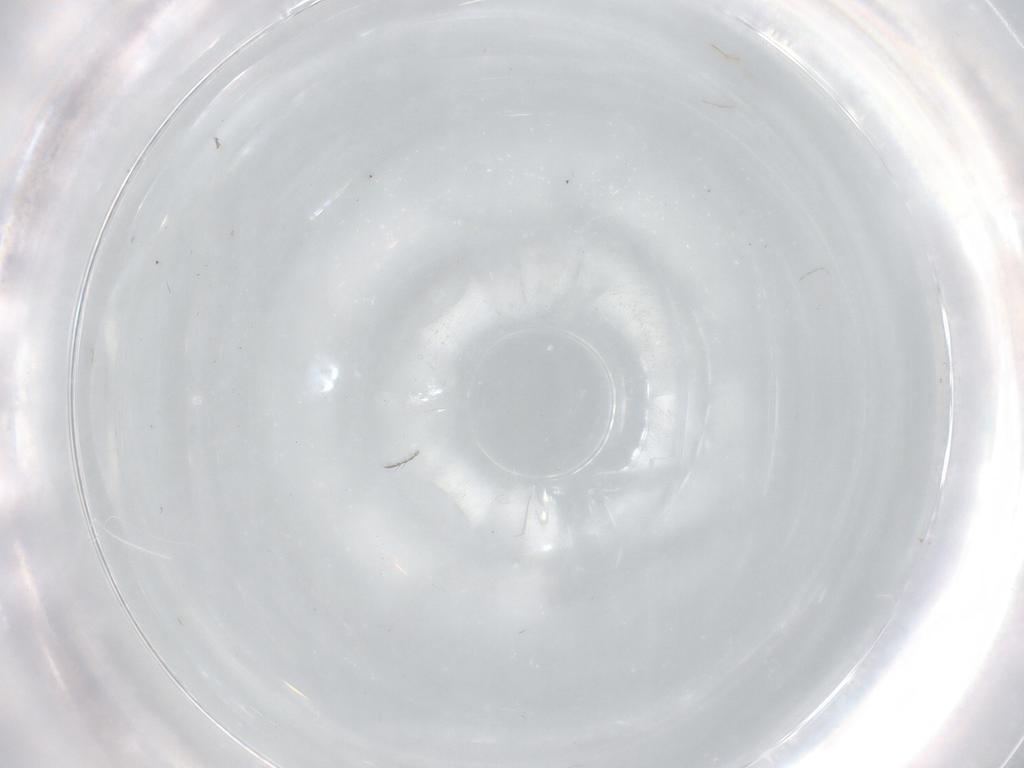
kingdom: Animalia
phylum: Arthropoda
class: Insecta
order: Diptera
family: Chironomidae
